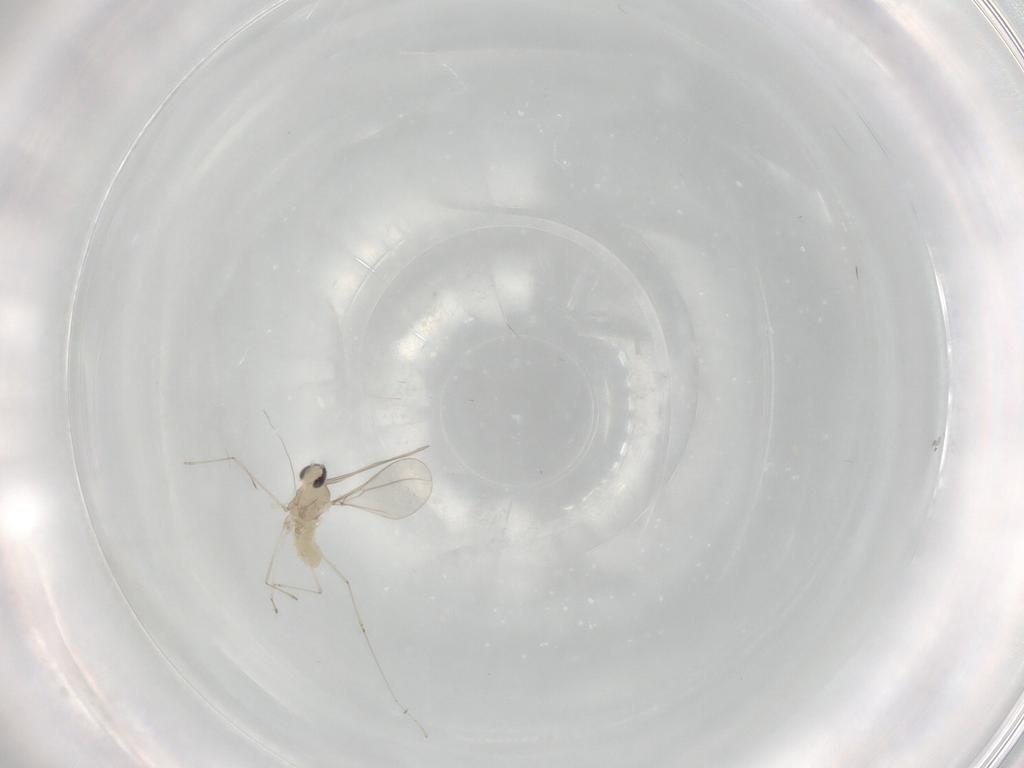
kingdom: Animalia
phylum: Arthropoda
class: Insecta
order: Diptera
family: Cecidomyiidae
